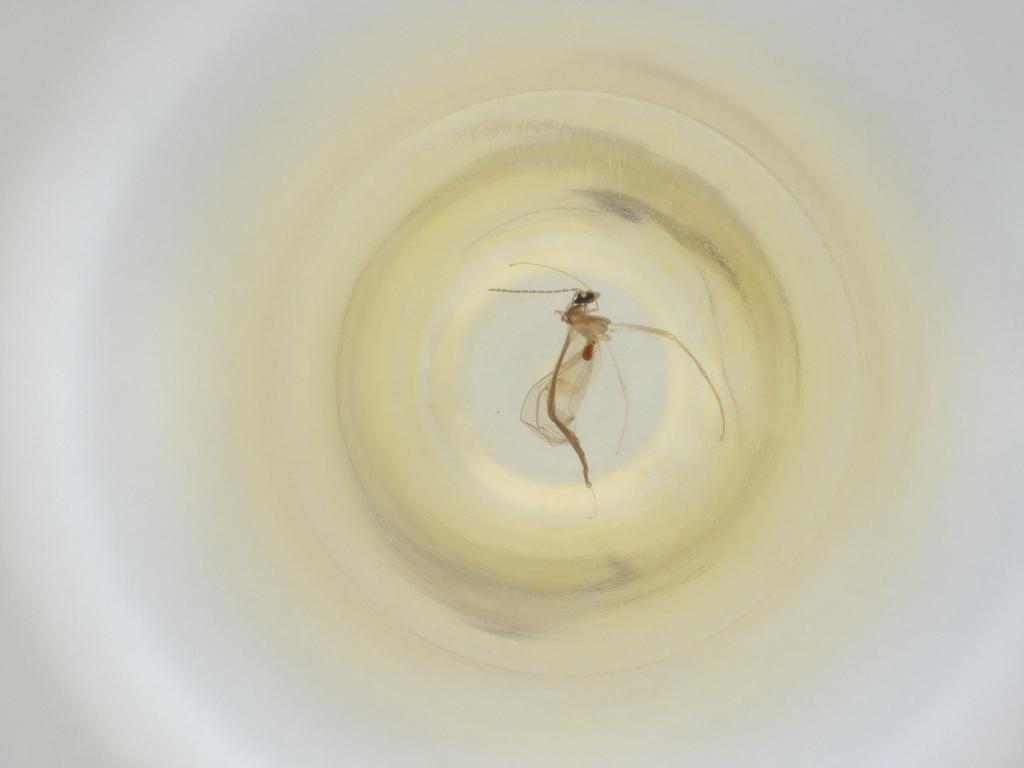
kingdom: Animalia
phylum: Arthropoda
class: Insecta
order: Diptera
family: Cecidomyiidae
